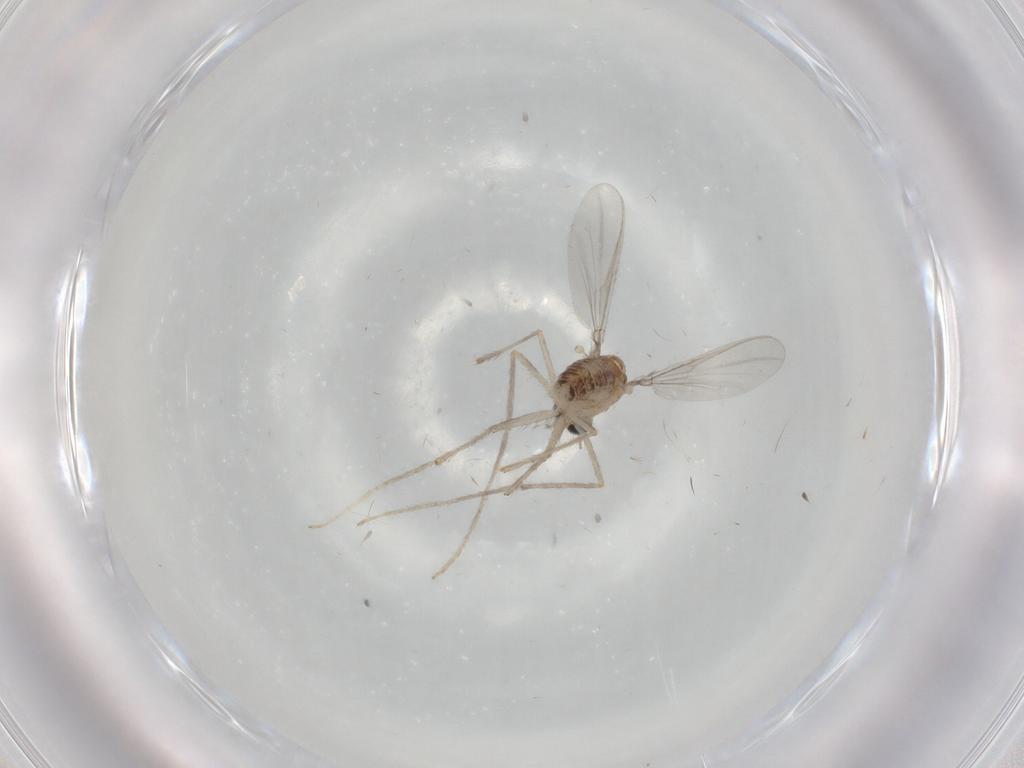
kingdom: Animalia
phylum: Arthropoda
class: Insecta
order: Diptera
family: Chironomidae
